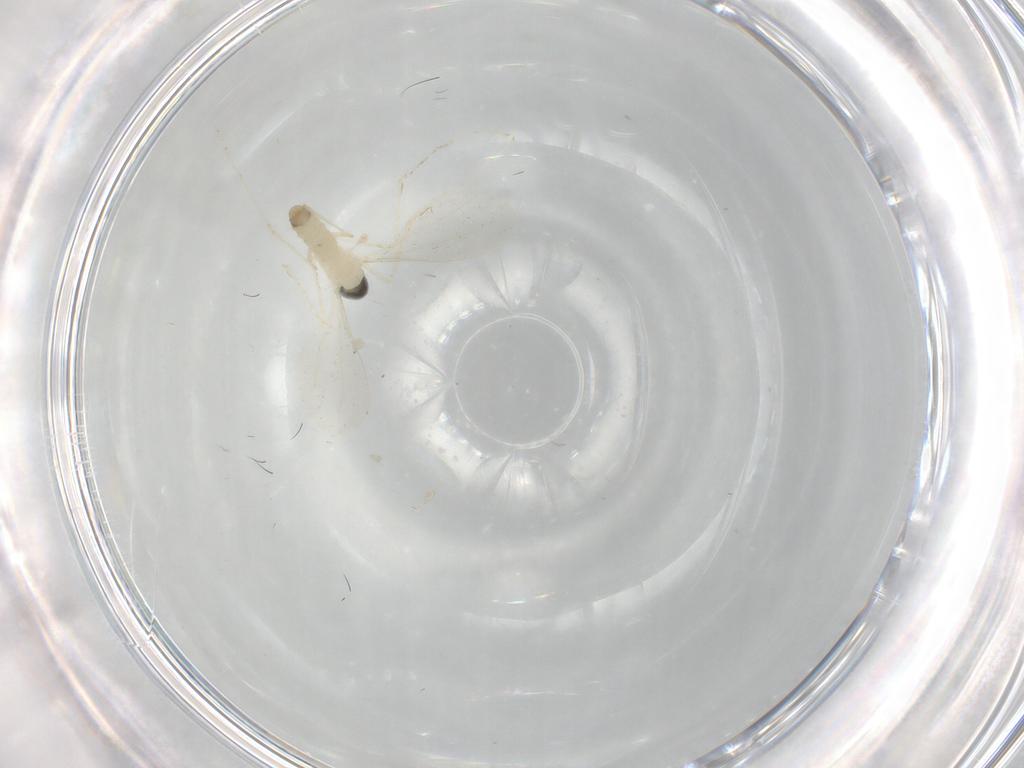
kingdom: Animalia
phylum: Arthropoda
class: Insecta
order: Diptera
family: Cecidomyiidae
